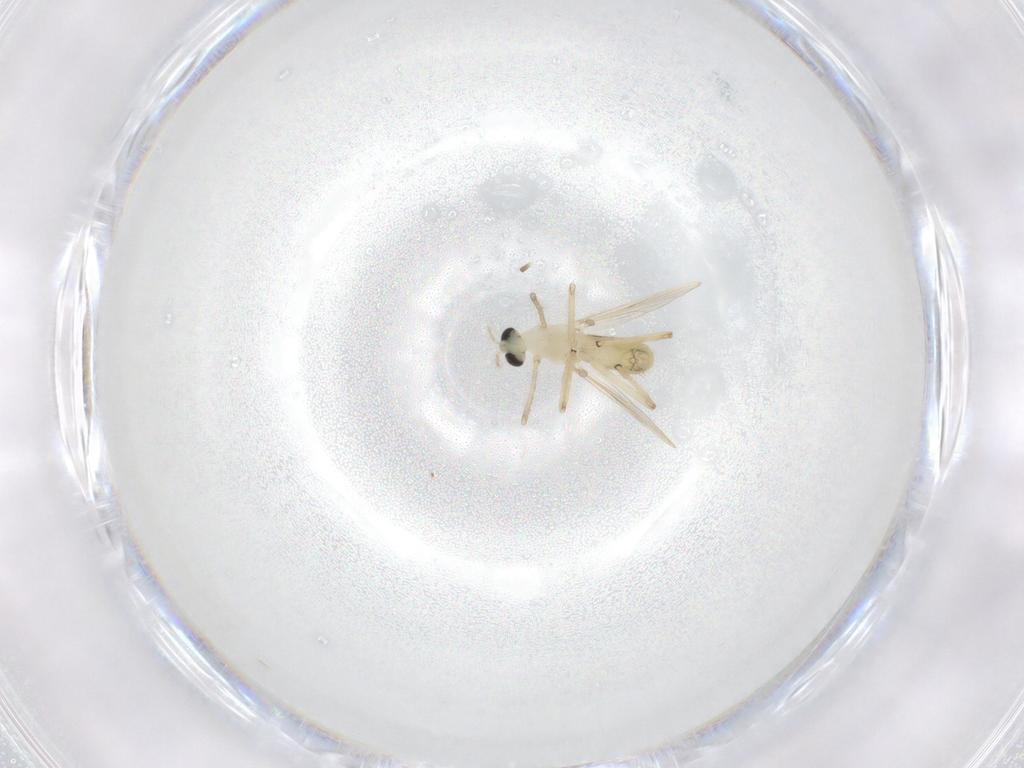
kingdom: Animalia
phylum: Arthropoda
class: Insecta
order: Diptera
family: Chironomidae
